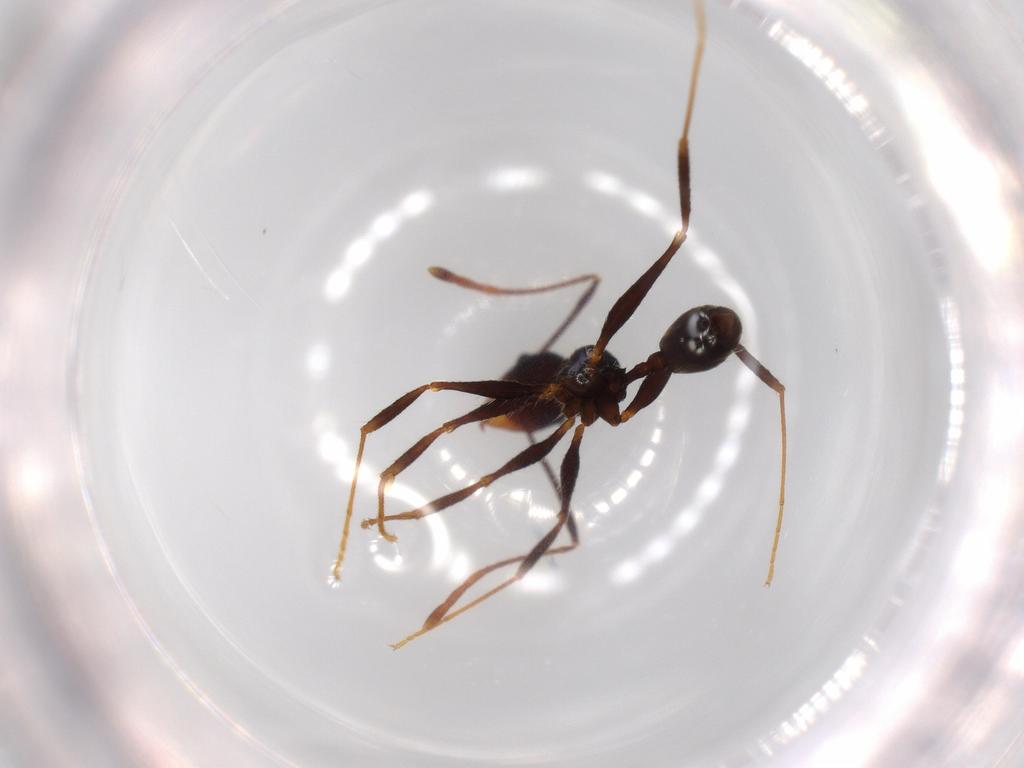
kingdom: Animalia
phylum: Arthropoda
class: Insecta
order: Hymenoptera
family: Formicidae
